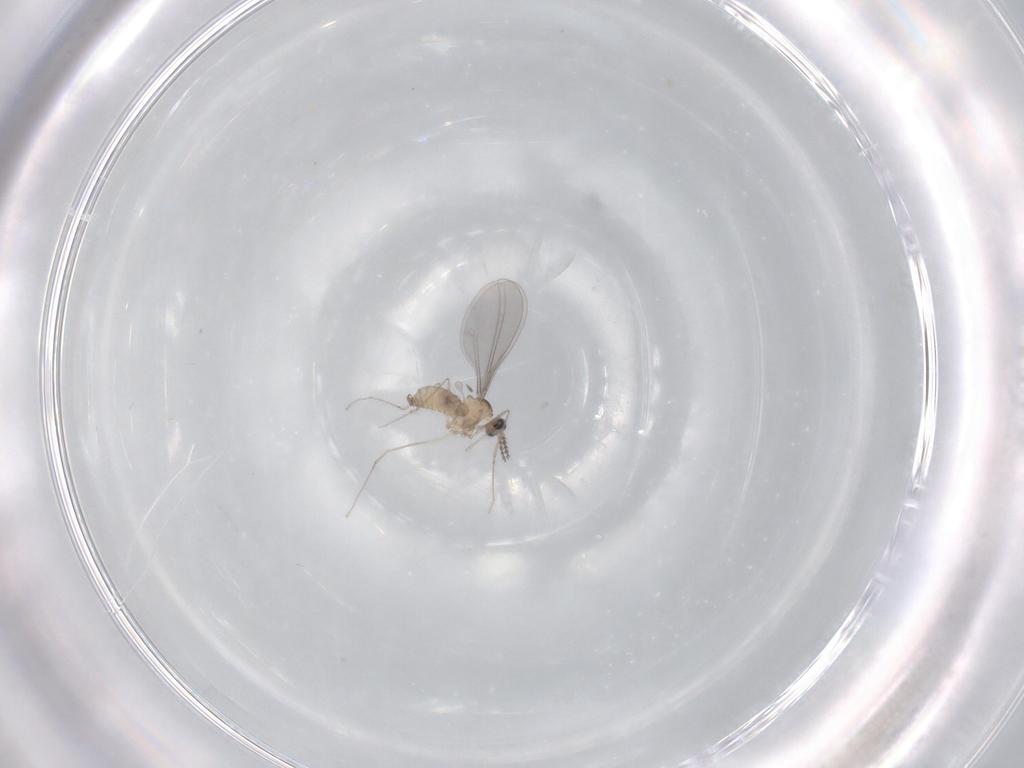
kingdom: Animalia
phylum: Arthropoda
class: Insecta
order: Diptera
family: Cecidomyiidae
